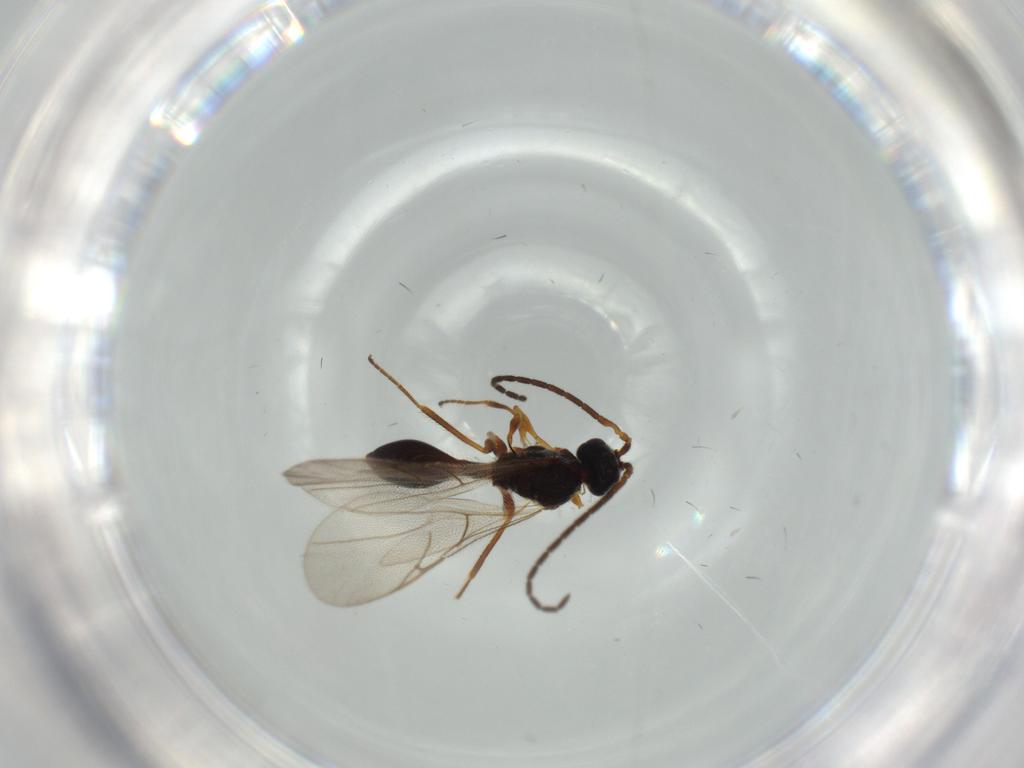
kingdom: Animalia
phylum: Arthropoda
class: Insecta
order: Hymenoptera
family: Diapriidae
